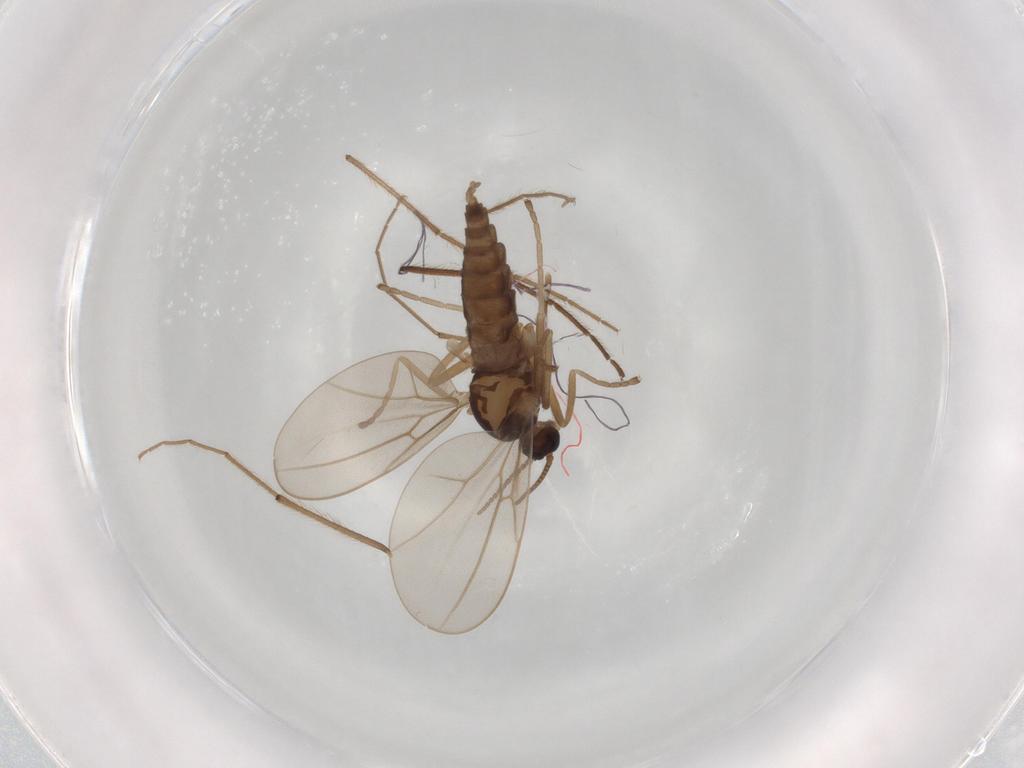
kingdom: Animalia
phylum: Arthropoda
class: Insecta
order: Diptera
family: Cecidomyiidae
